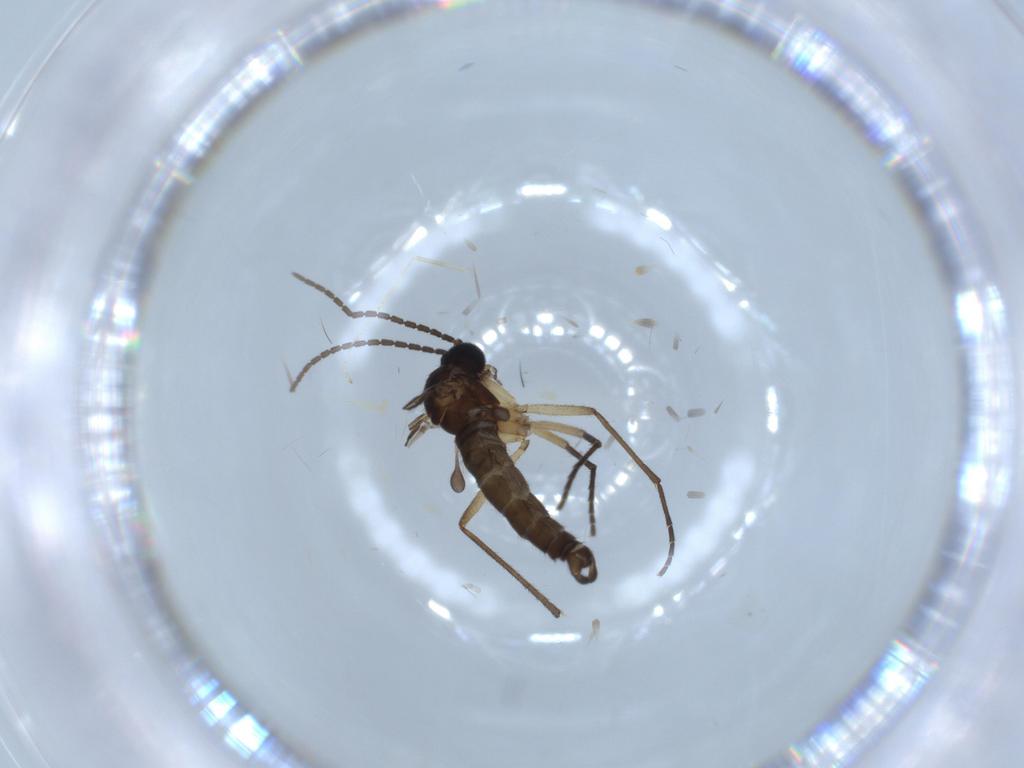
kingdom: Animalia
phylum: Arthropoda
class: Insecta
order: Diptera
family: Cecidomyiidae
